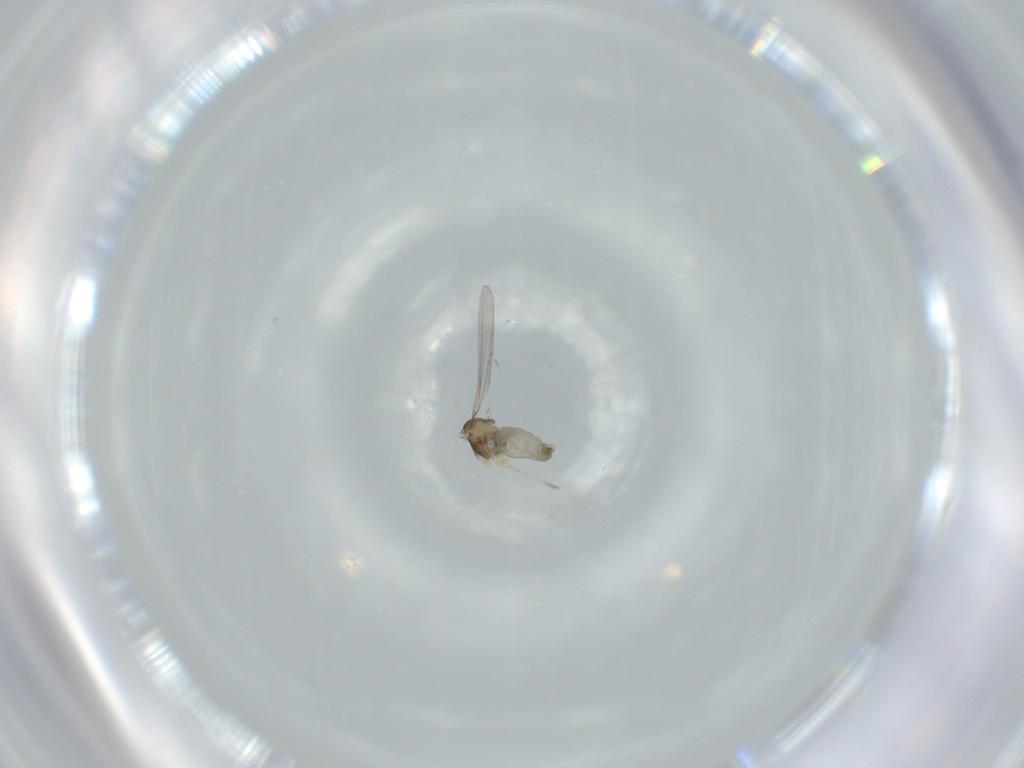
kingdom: Animalia
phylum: Arthropoda
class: Insecta
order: Diptera
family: Cecidomyiidae
